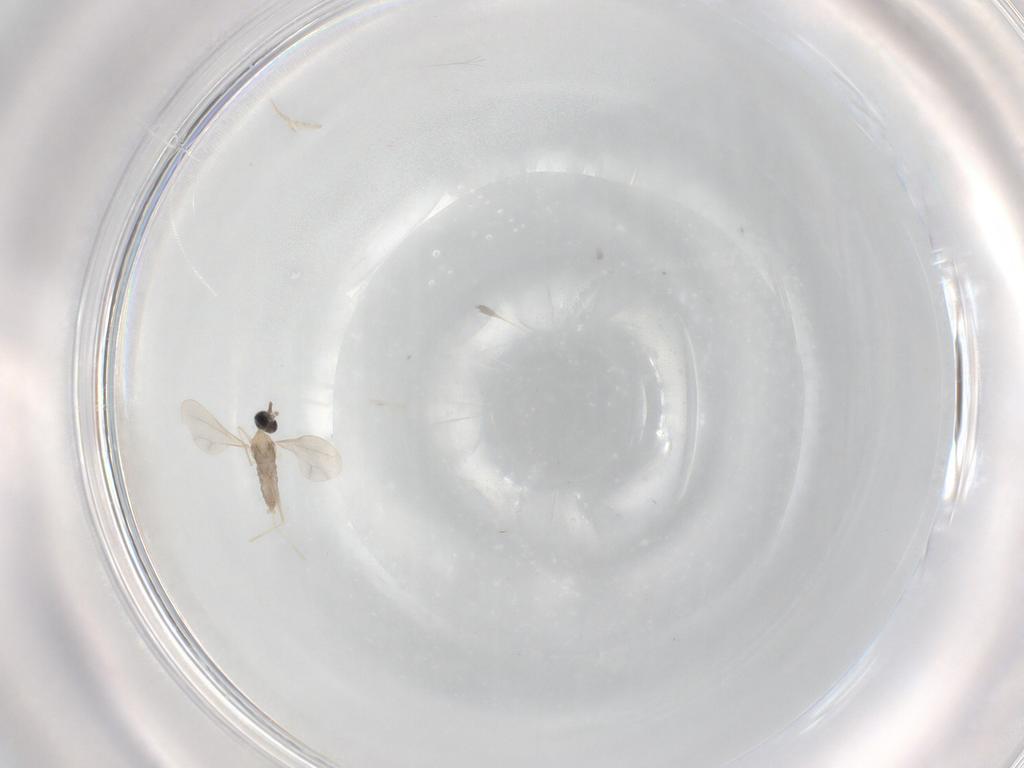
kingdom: Animalia
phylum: Arthropoda
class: Insecta
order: Diptera
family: Cecidomyiidae
